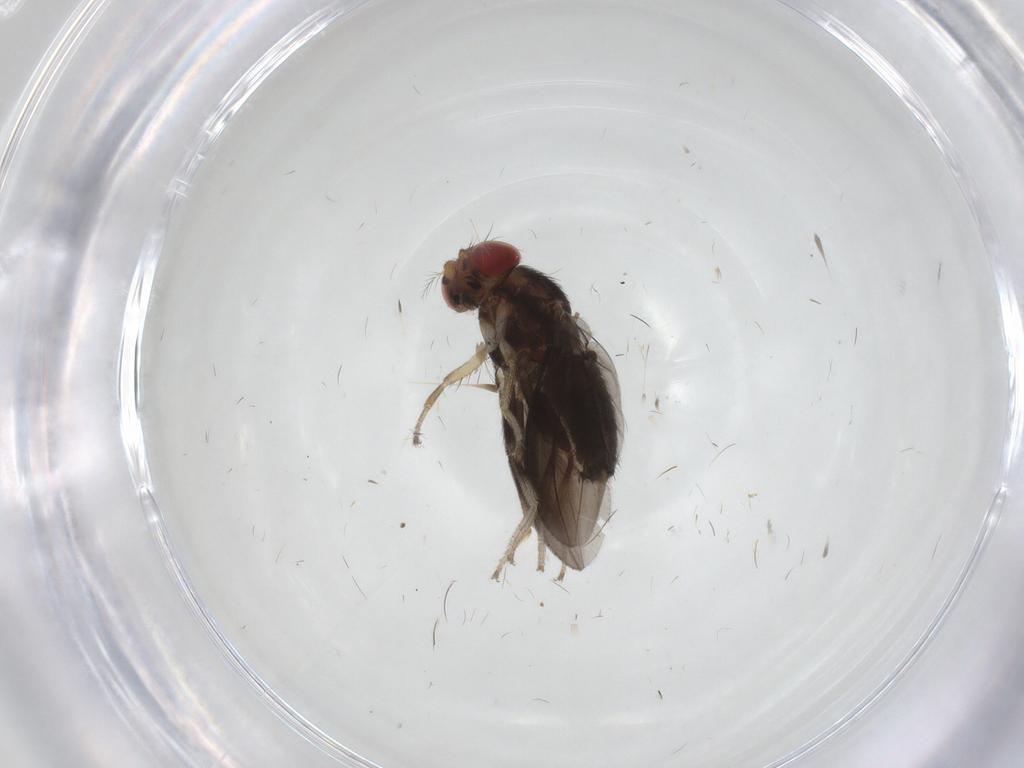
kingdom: Animalia
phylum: Arthropoda
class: Insecta
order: Diptera
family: Drosophilidae
